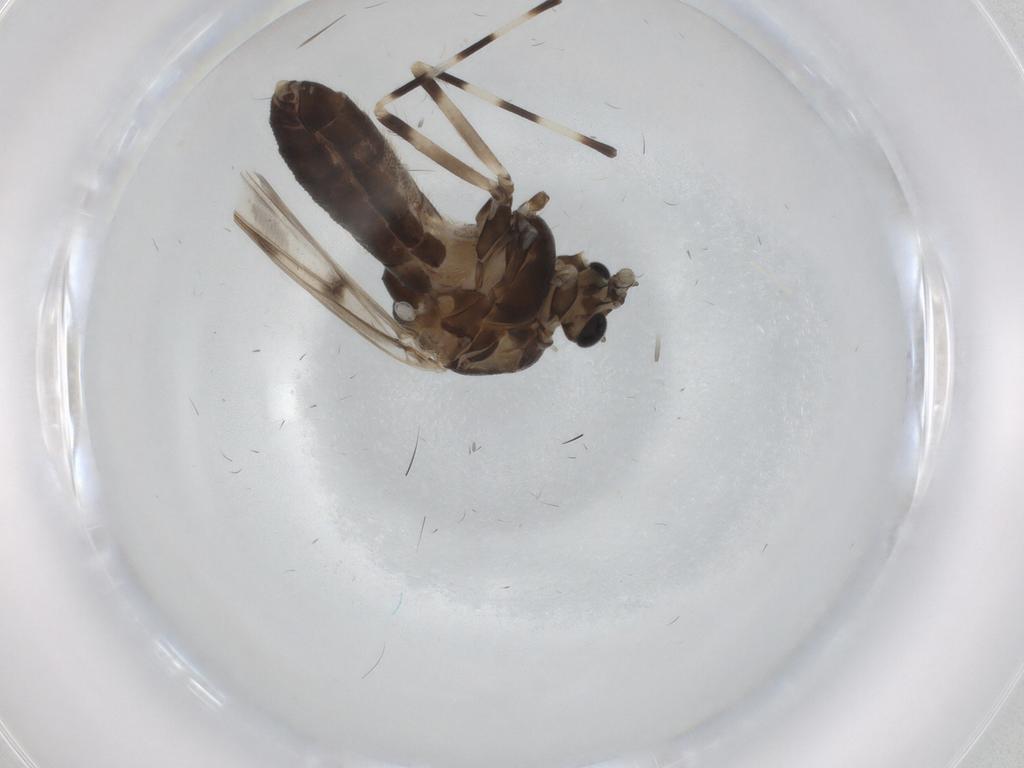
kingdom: Animalia
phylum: Arthropoda
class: Insecta
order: Diptera
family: Chironomidae
